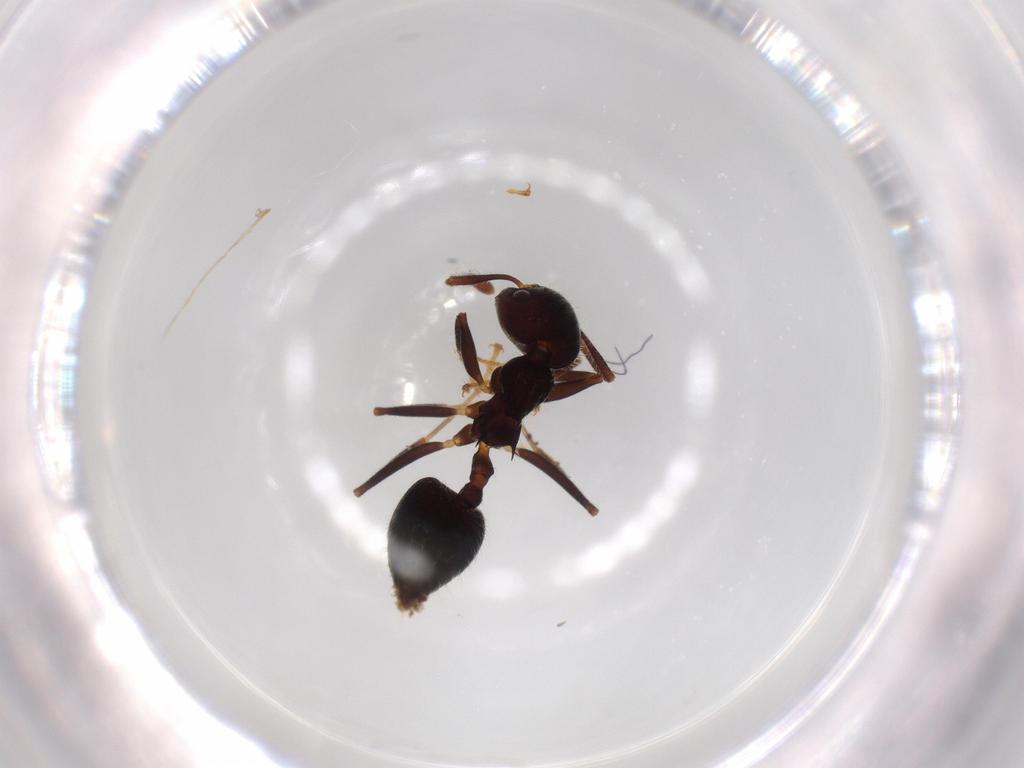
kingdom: Animalia
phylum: Arthropoda
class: Insecta
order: Hymenoptera
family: Formicidae
